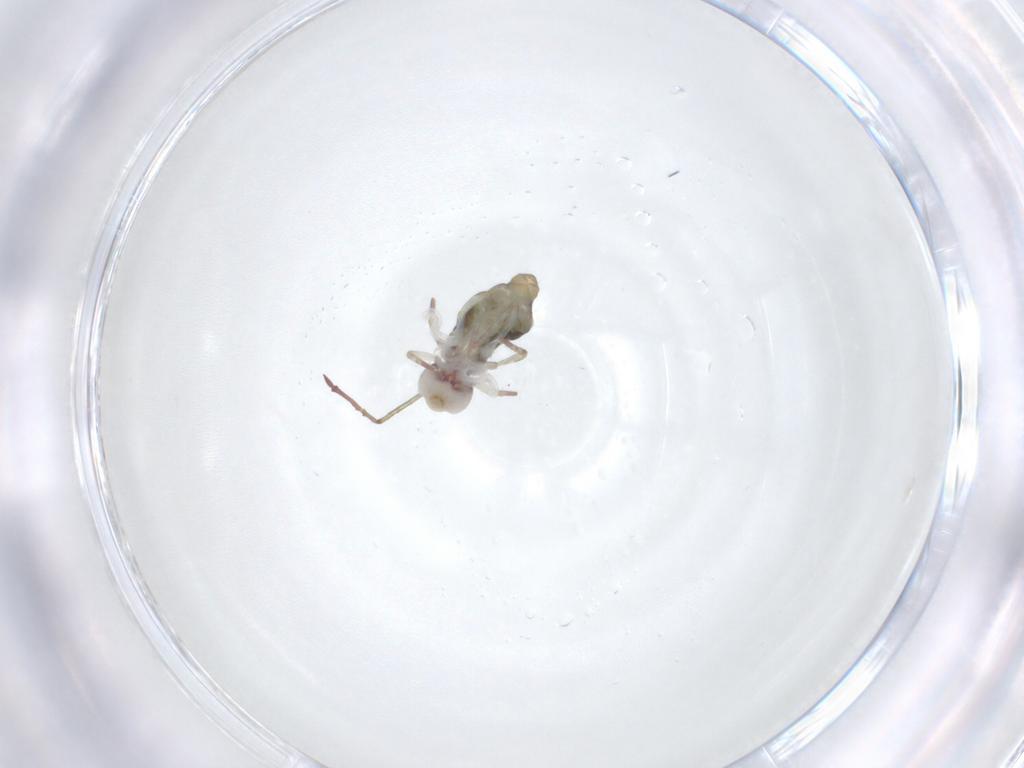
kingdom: Animalia
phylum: Arthropoda
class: Collembola
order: Symphypleona
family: Dicyrtomidae
